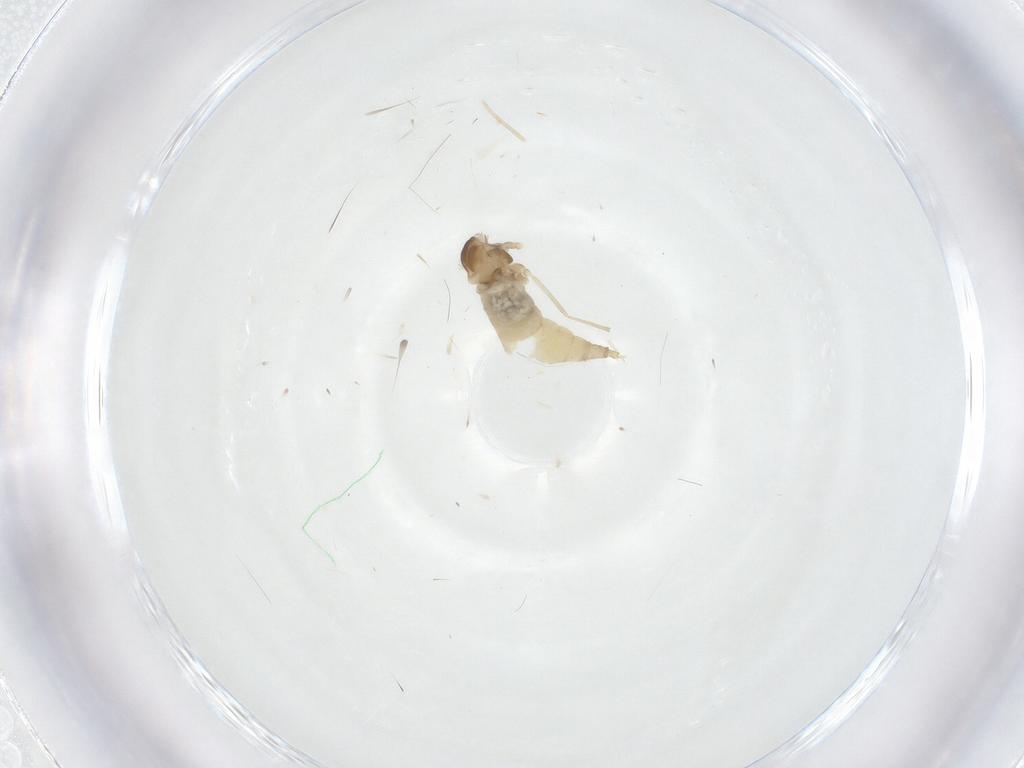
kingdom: Animalia
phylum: Arthropoda
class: Insecta
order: Diptera
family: Cecidomyiidae
